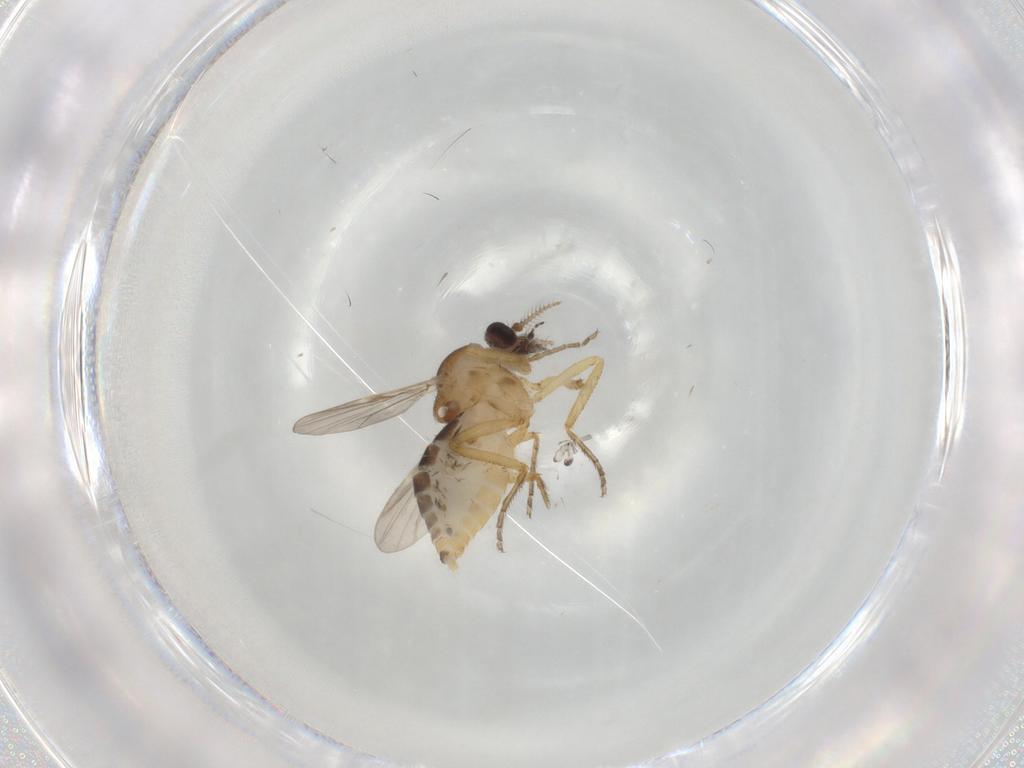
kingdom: Animalia
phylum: Arthropoda
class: Insecta
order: Diptera
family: Ceratopogonidae
